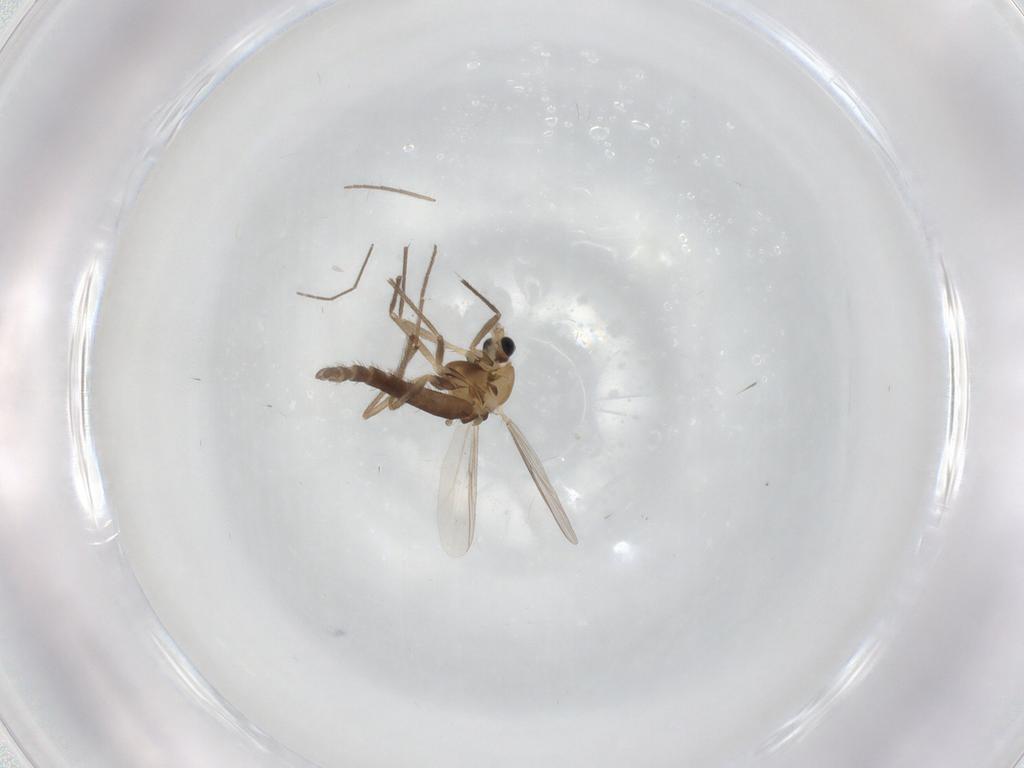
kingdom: Animalia
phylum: Arthropoda
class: Insecta
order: Diptera
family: Chironomidae
